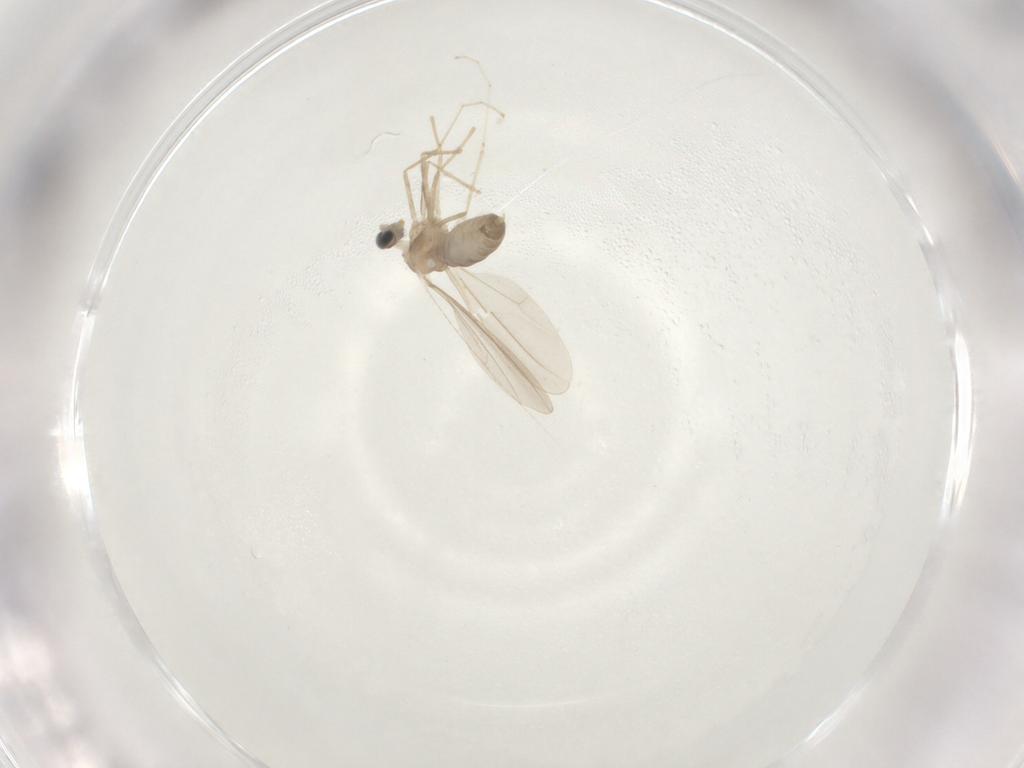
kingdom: Animalia
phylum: Arthropoda
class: Insecta
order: Diptera
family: Cecidomyiidae
